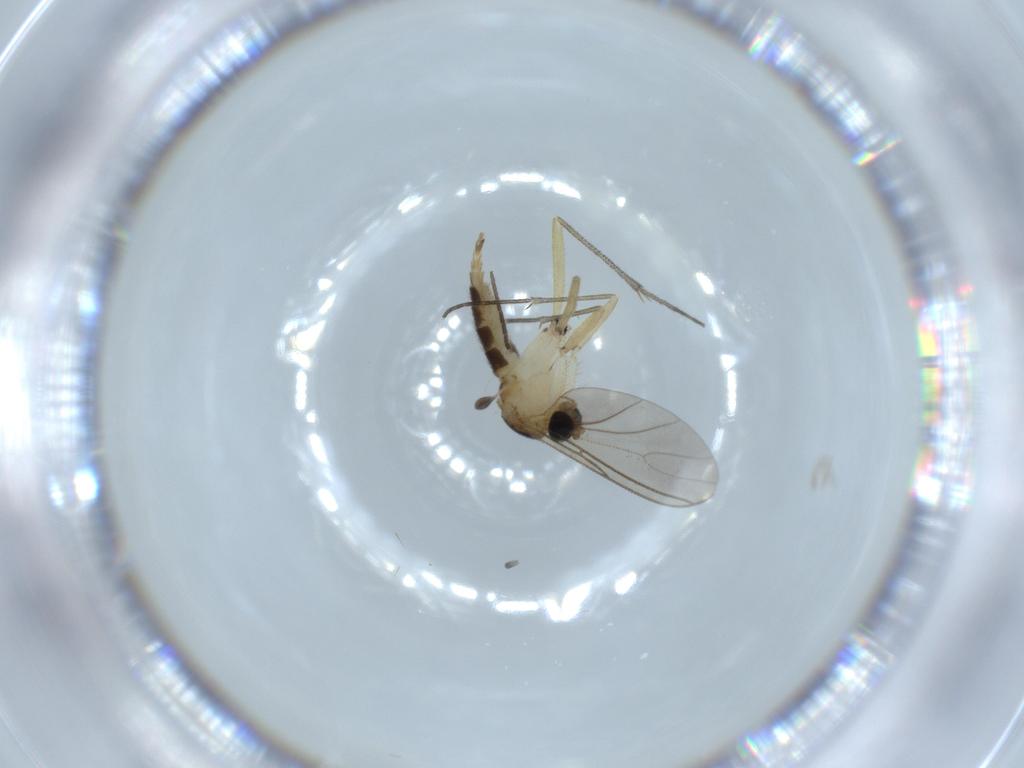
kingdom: Animalia
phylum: Arthropoda
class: Insecta
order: Diptera
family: Sciaridae
